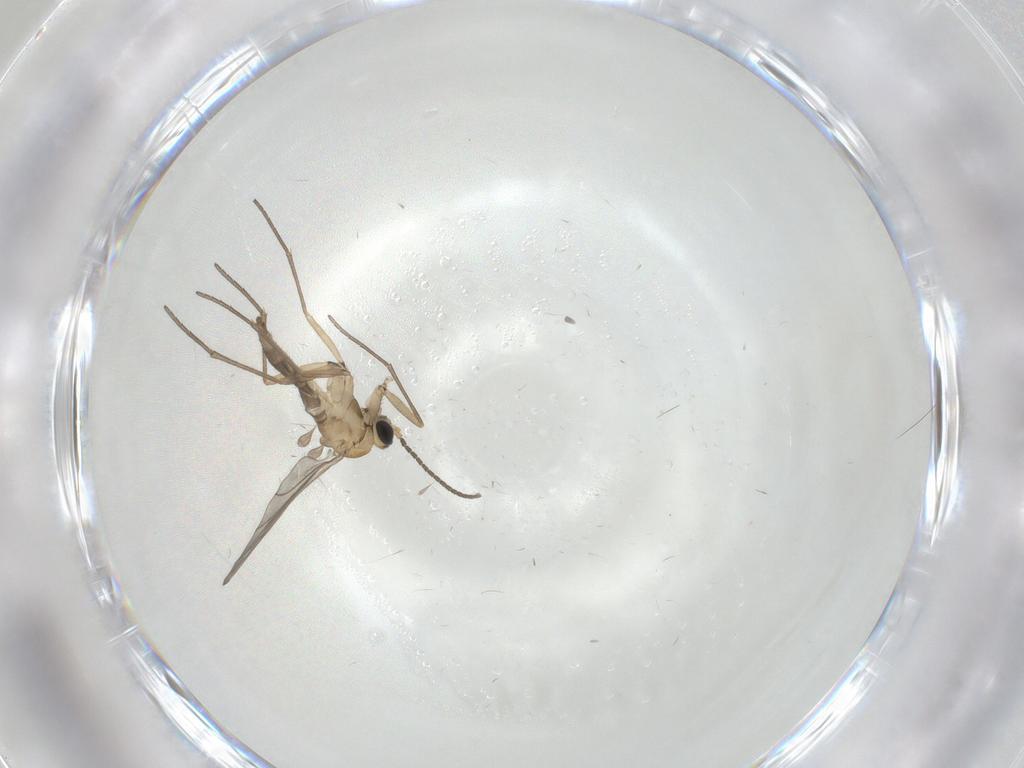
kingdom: Animalia
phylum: Arthropoda
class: Insecta
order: Diptera
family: Sciaridae
